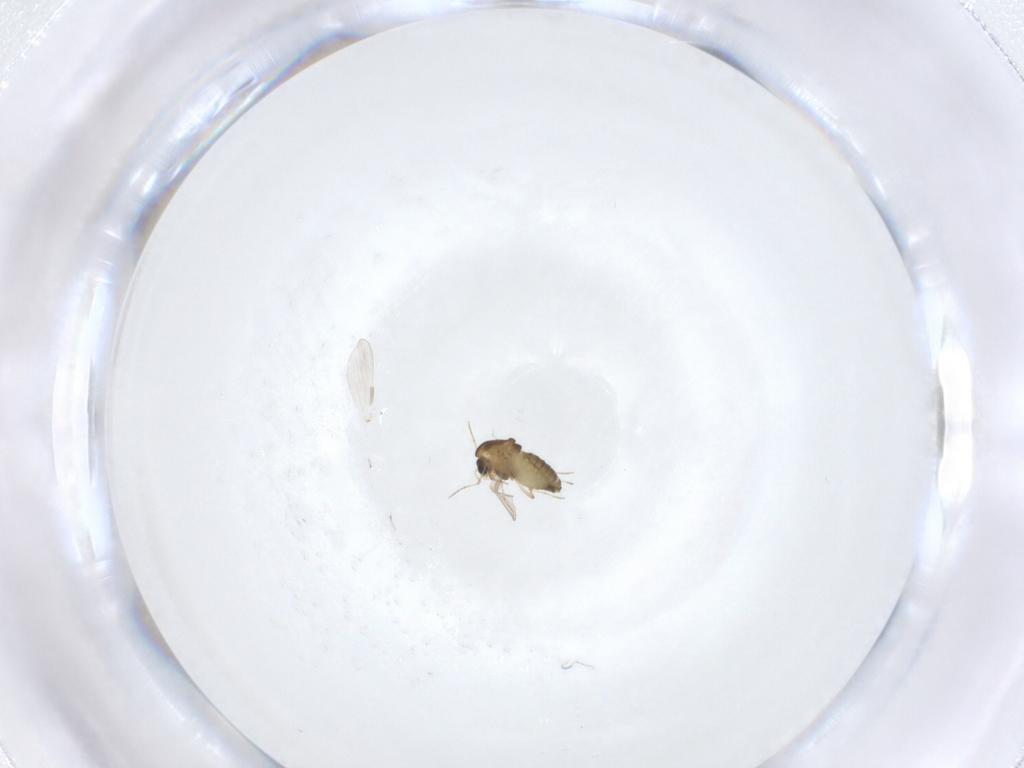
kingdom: Animalia
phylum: Arthropoda
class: Insecta
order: Diptera
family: Chironomidae
